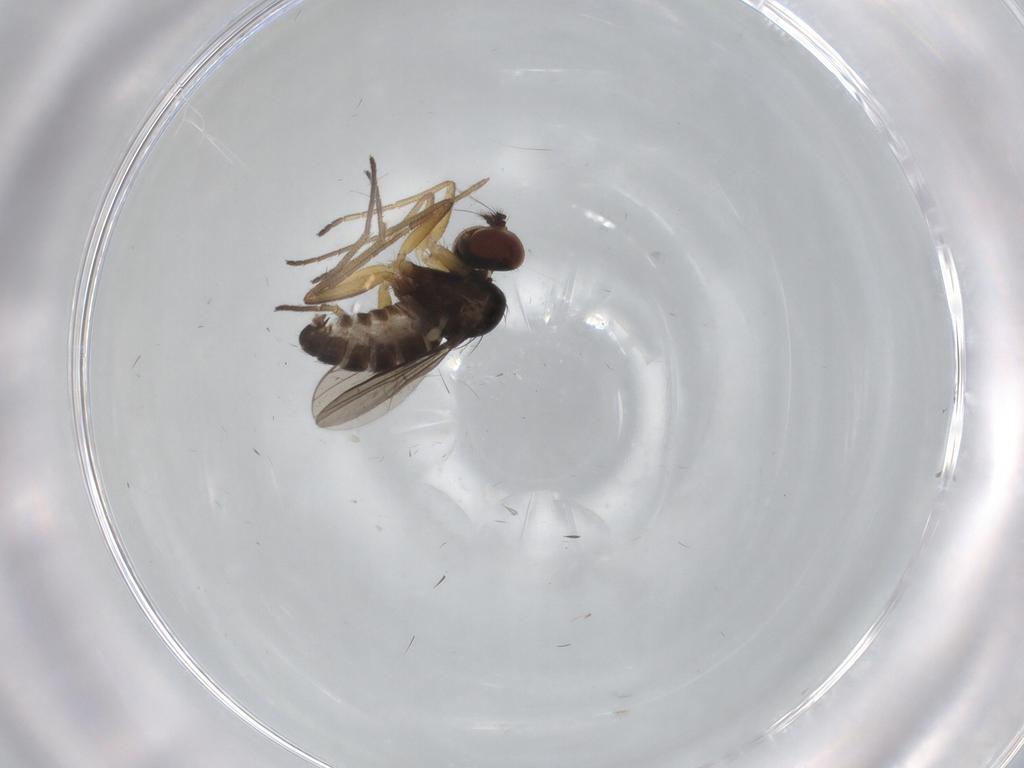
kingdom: Animalia
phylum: Arthropoda
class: Insecta
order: Diptera
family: Dolichopodidae
